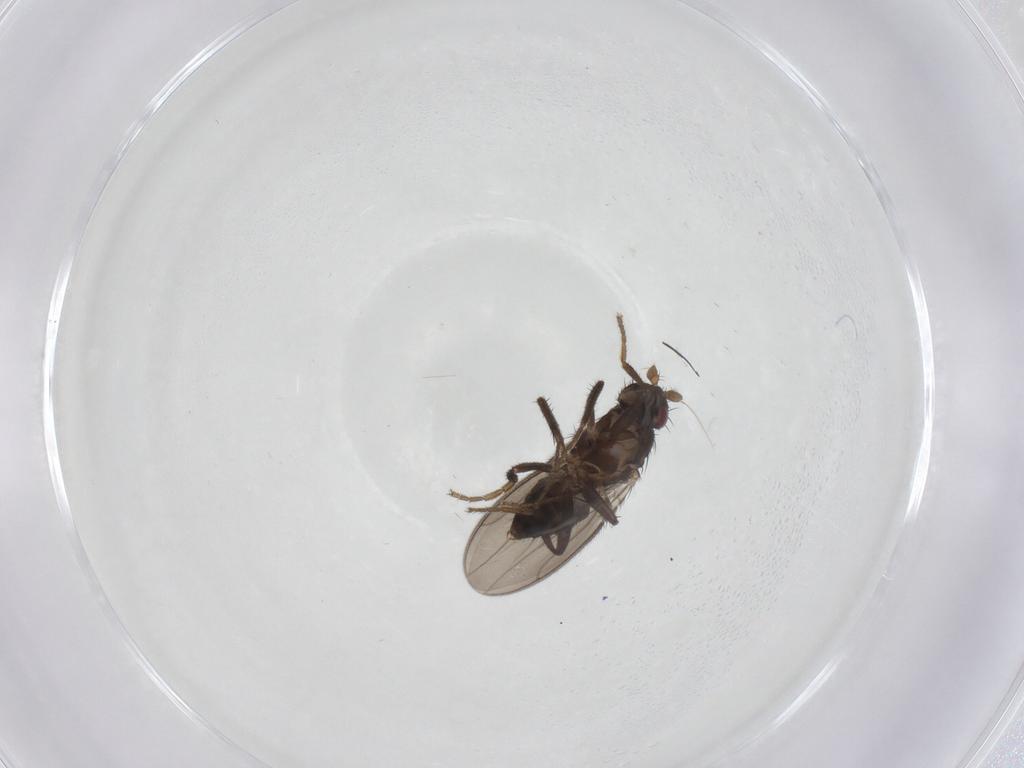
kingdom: Animalia
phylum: Arthropoda
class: Insecta
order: Diptera
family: Sphaeroceridae
